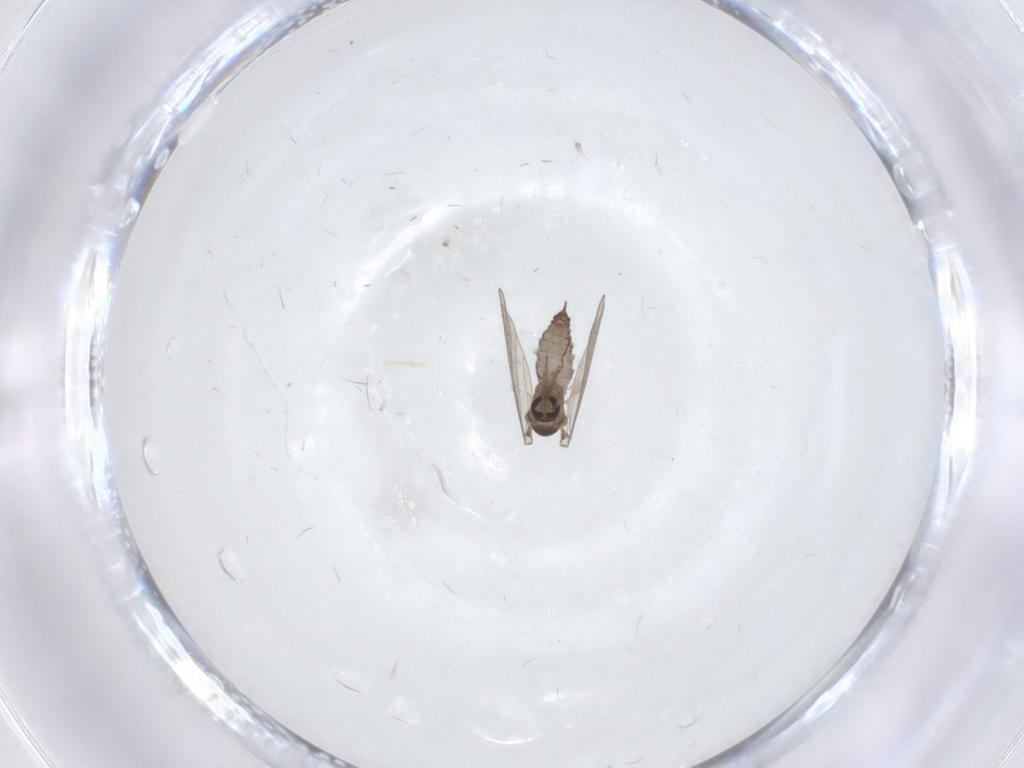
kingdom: Animalia
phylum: Arthropoda
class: Insecta
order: Diptera
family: Psychodidae
